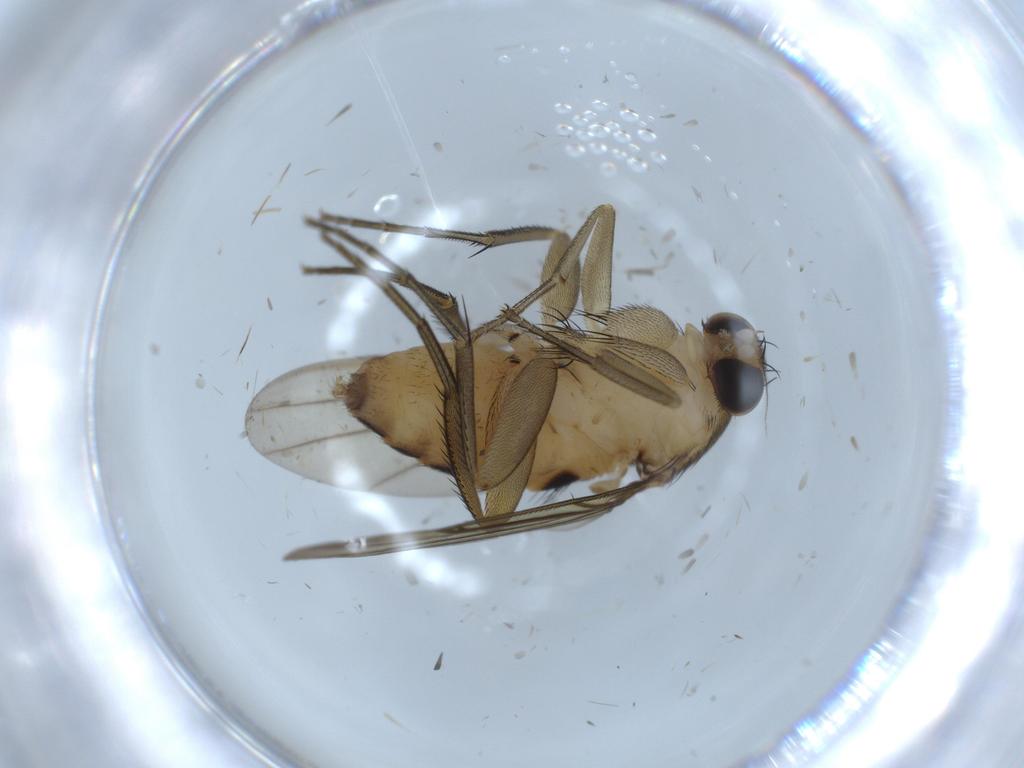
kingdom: Animalia
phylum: Arthropoda
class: Insecta
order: Diptera
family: Phoridae
